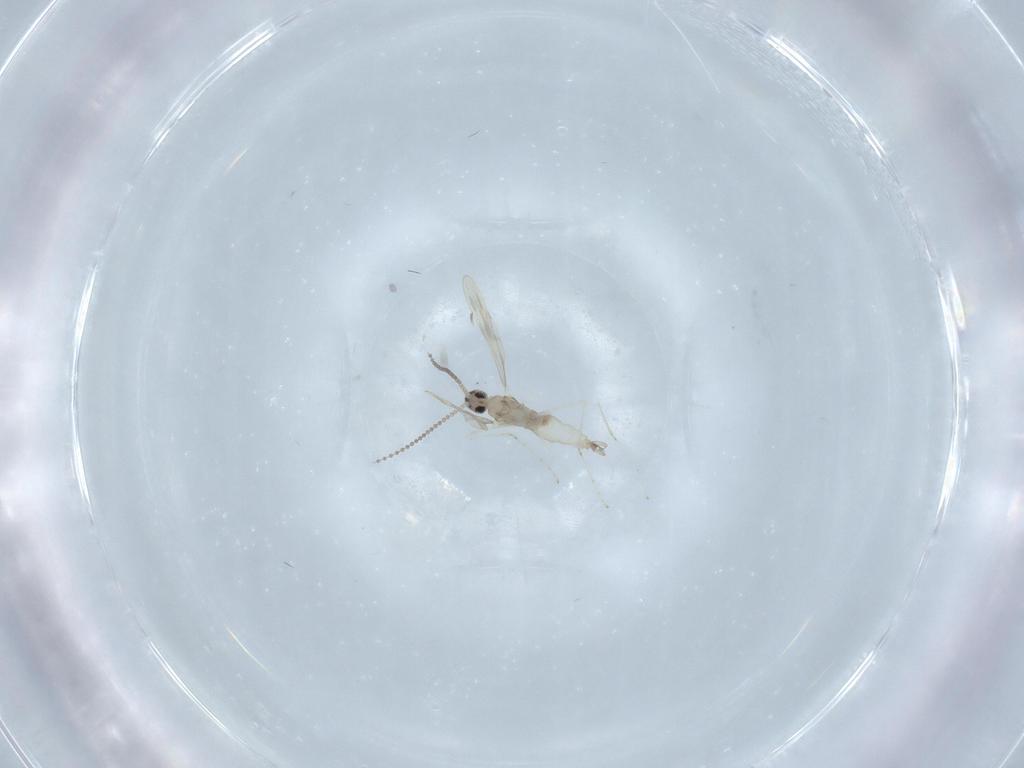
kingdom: Animalia
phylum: Arthropoda
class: Insecta
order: Diptera
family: Cecidomyiidae
